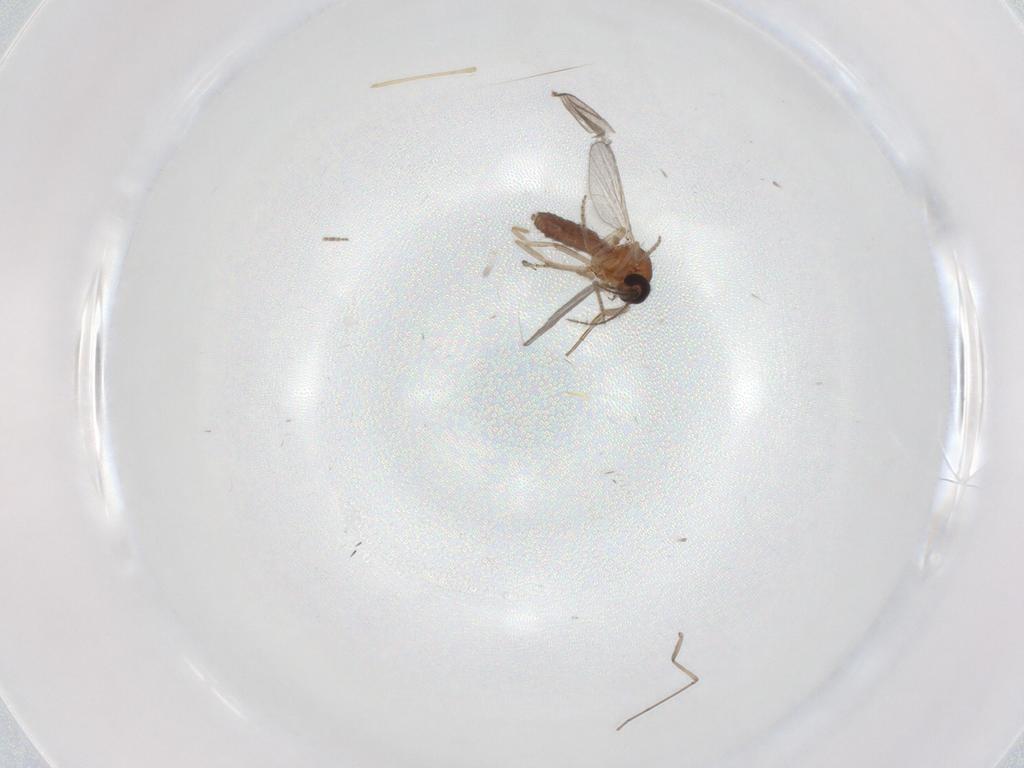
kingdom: Animalia
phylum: Arthropoda
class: Insecta
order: Diptera
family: Ceratopogonidae
